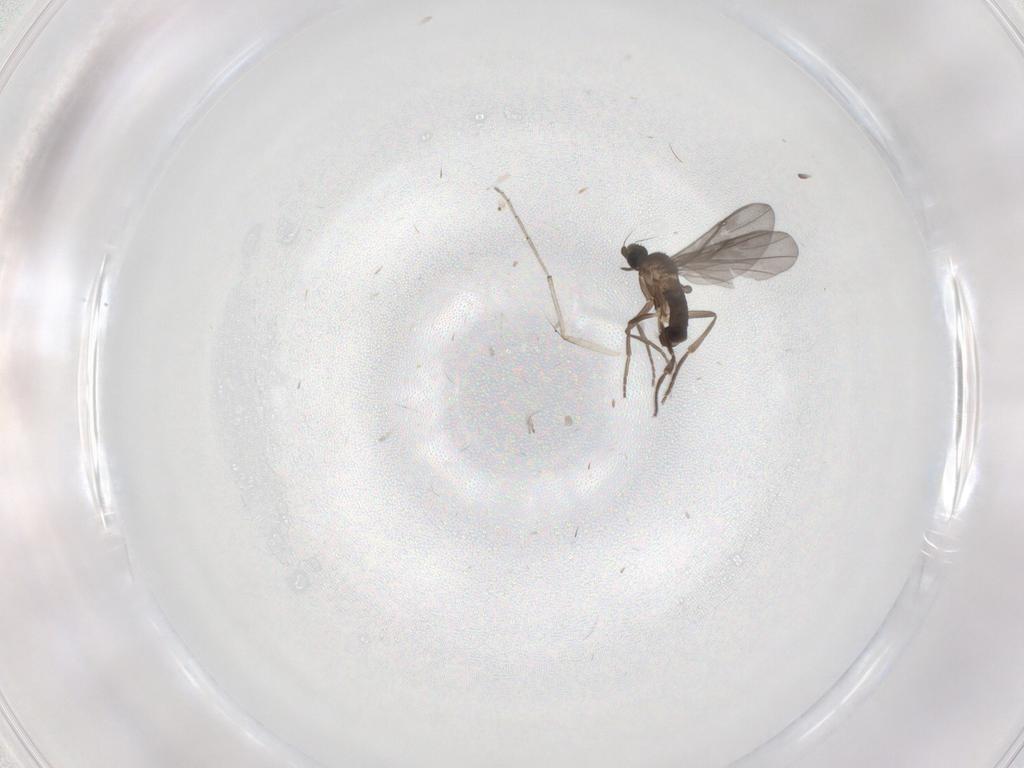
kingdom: Animalia
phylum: Arthropoda
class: Insecta
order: Diptera
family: Phoridae
